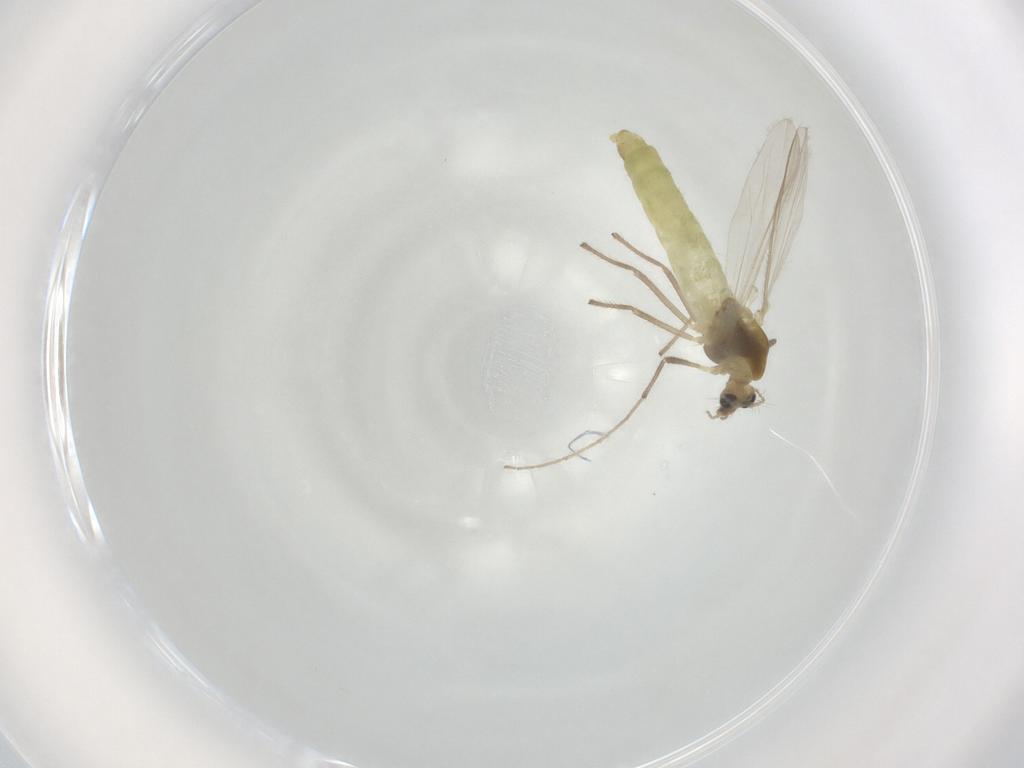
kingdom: Animalia
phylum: Arthropoda
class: Insecta
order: Diptera
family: Chironomidae
